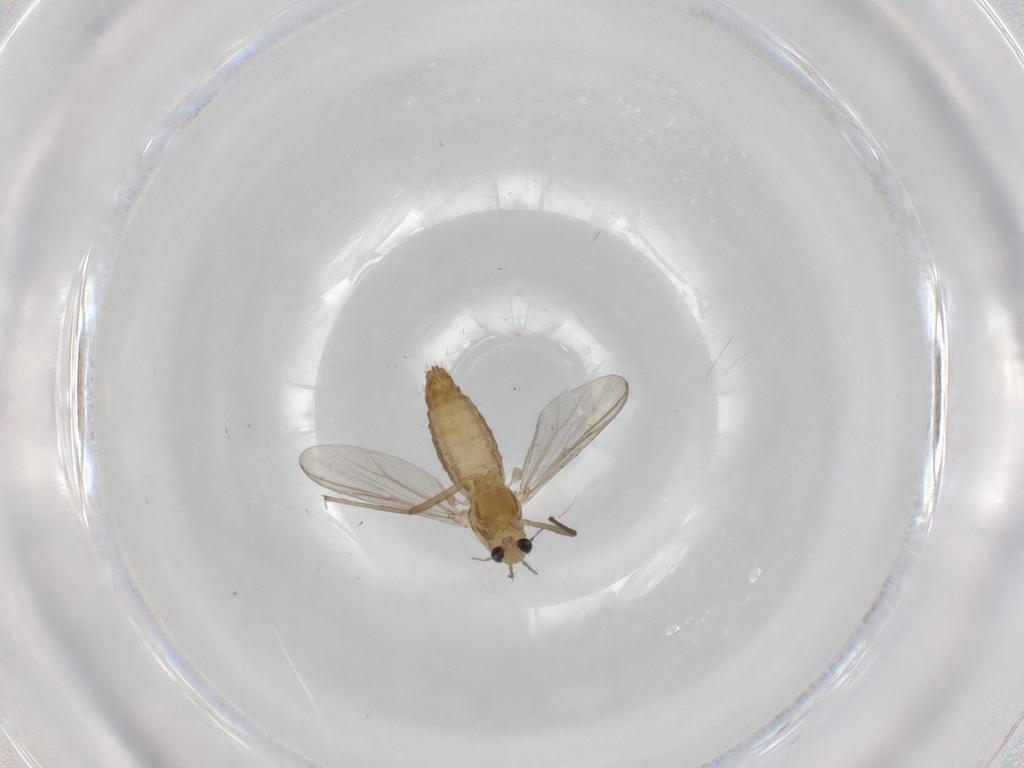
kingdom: Animalia
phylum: Arthropoda
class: Insecta
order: Diptera
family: Chironomidae
